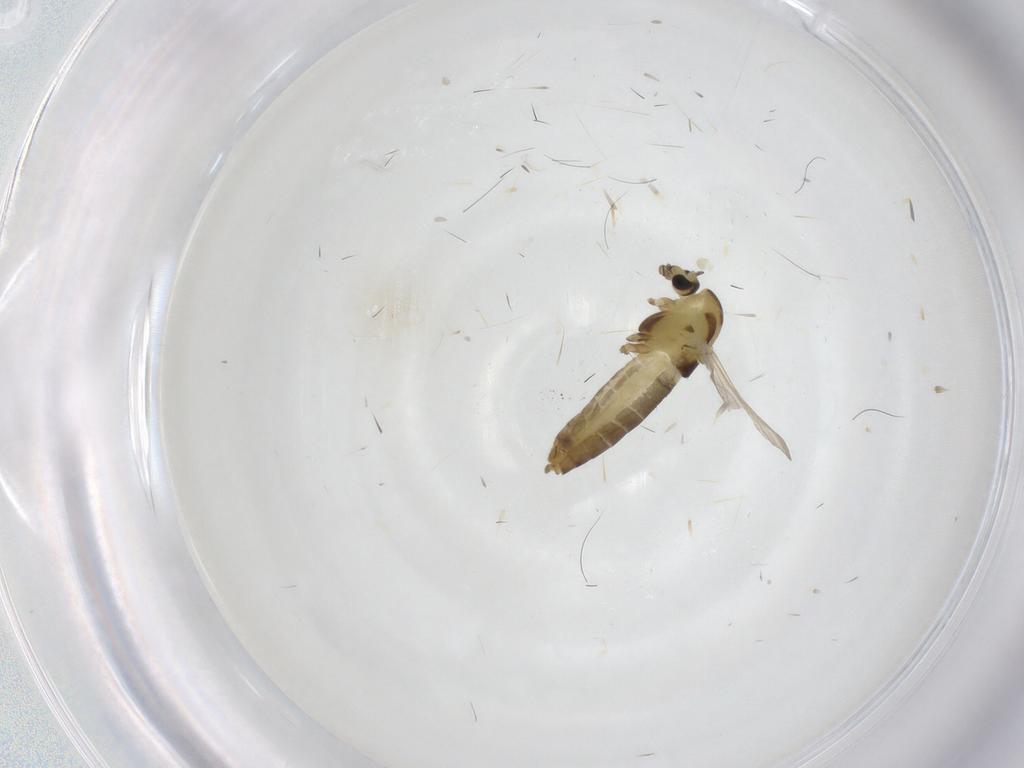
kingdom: Animalia
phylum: Arthropoda
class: Insecta
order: Diptera
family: Chironomidae
